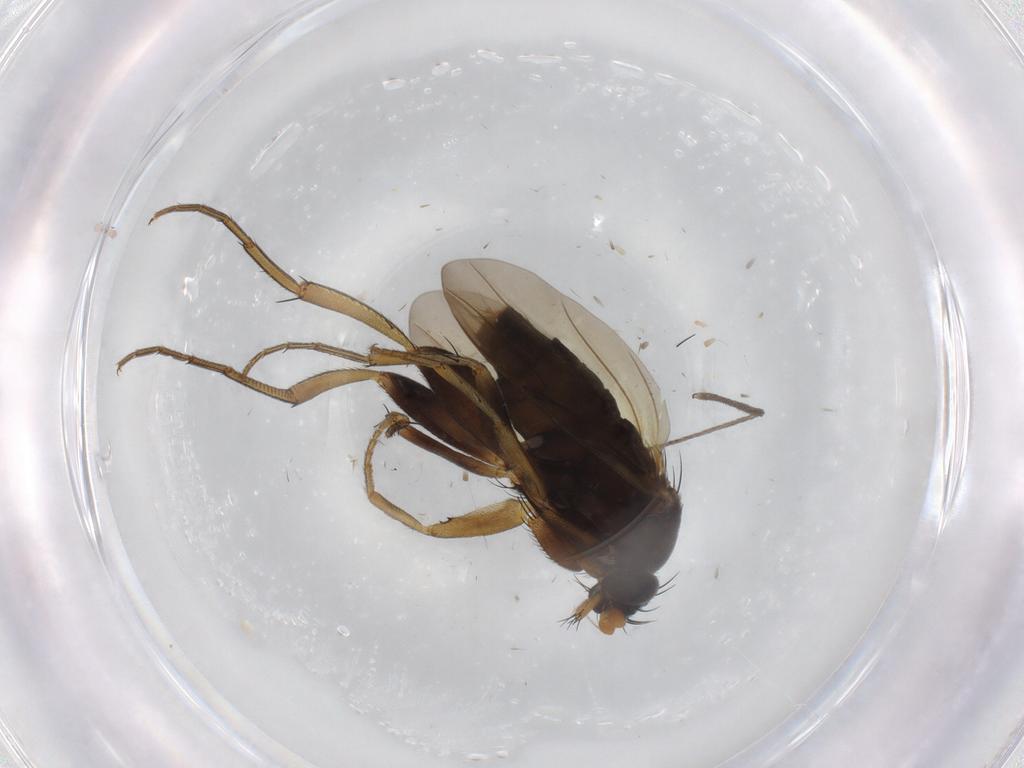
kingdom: Animalia
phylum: Arthropoda
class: Insecta
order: Diptera
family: Phoridae
